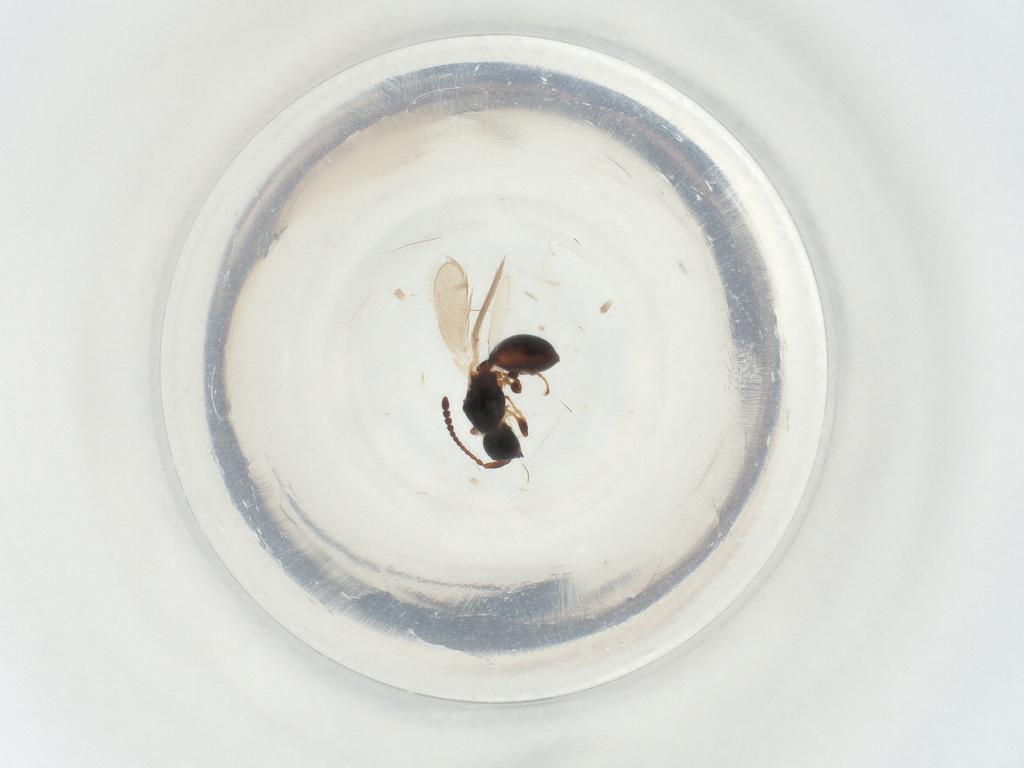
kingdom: Animalia
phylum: Arthropoda
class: Insecta
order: Hymenoptera
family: Diapriidae
